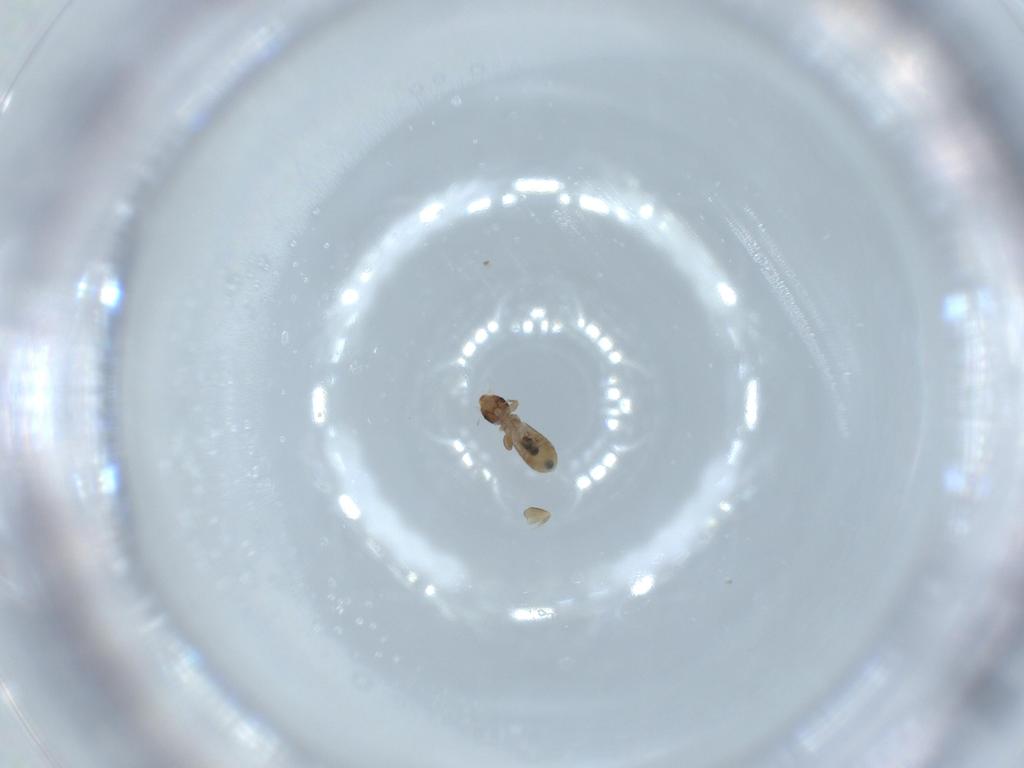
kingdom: Animalia
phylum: Arthropoda
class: Insecta
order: Psocodea
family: Liposcelididae
